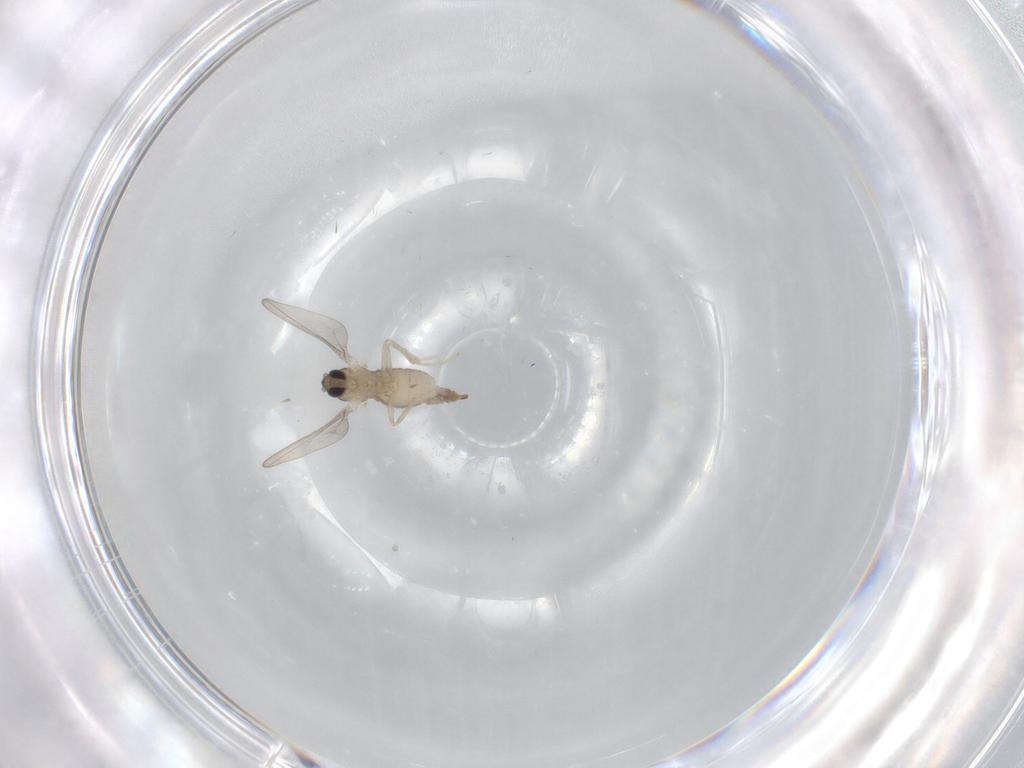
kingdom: Animalia
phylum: Arthropoda
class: Insecta
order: Diptera
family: Cecidomyiidae
